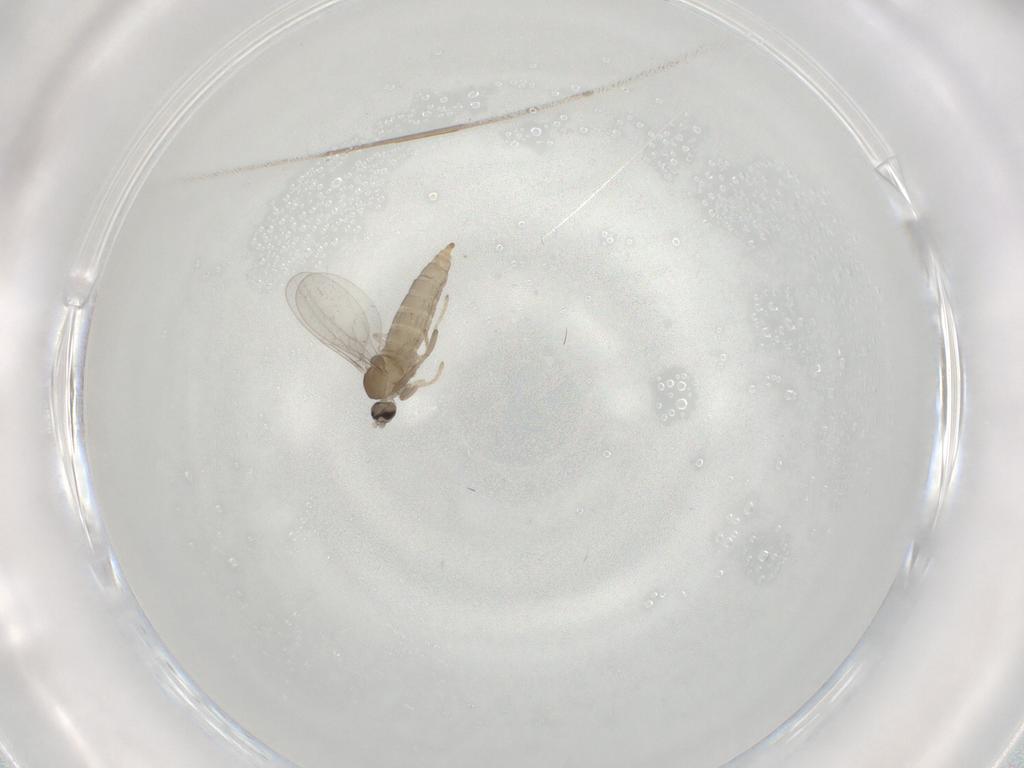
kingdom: Animalia
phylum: Arthropoda
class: Insecta
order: Diptera
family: Cecidomyiidae
